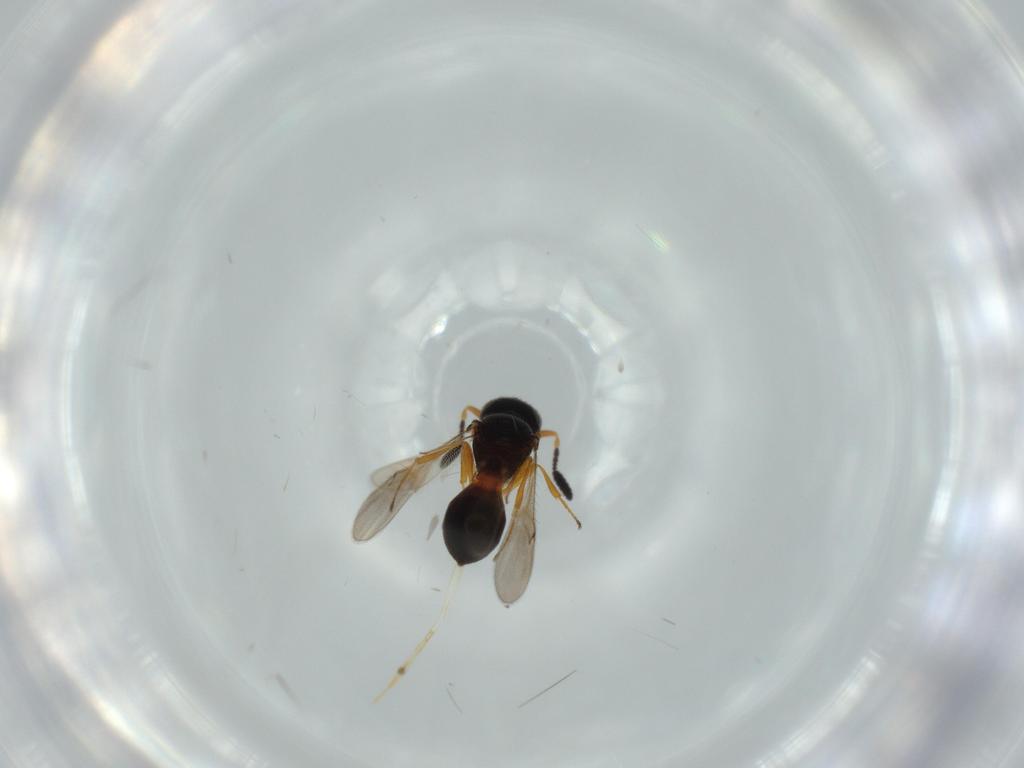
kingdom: Animalia
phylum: Arthropoda
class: Insecta
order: Hymenoptera
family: Scelionidae
